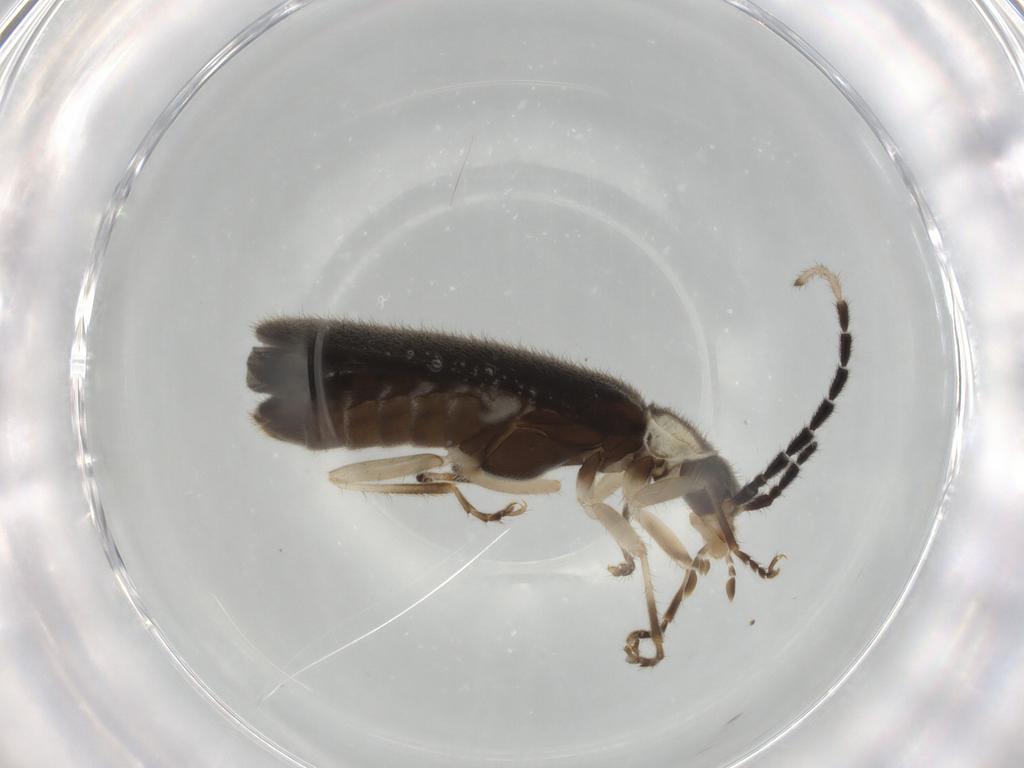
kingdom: Animalia
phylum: Arthropoda
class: Insecta
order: Coleoptera
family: Cantharidae
